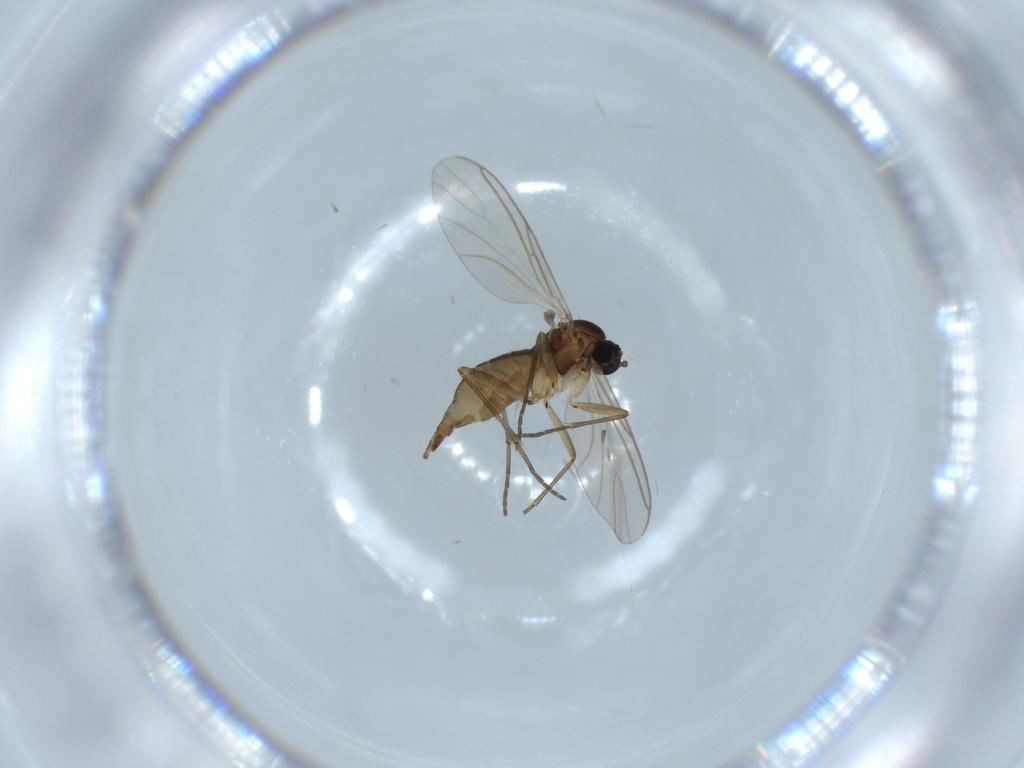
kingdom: Animalia
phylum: Arthropoda
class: Insecta
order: Diptera
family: Sciaridae
